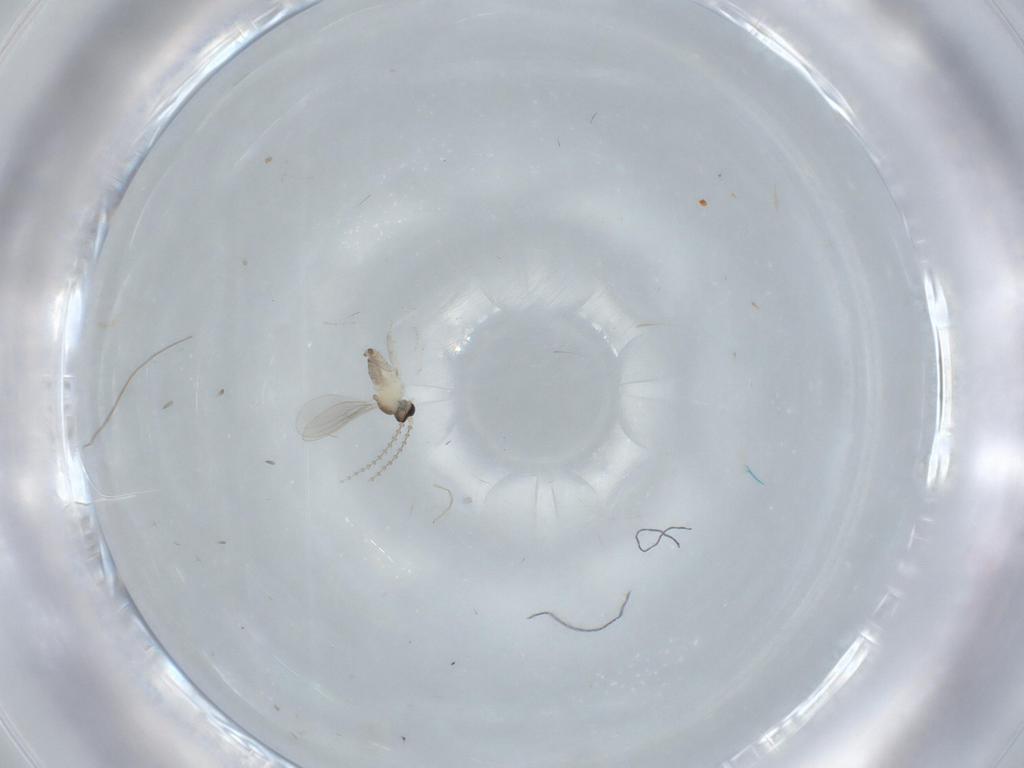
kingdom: Animalia
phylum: Arthropoda
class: Insecta
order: Diptera
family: Cecidomyiidae
